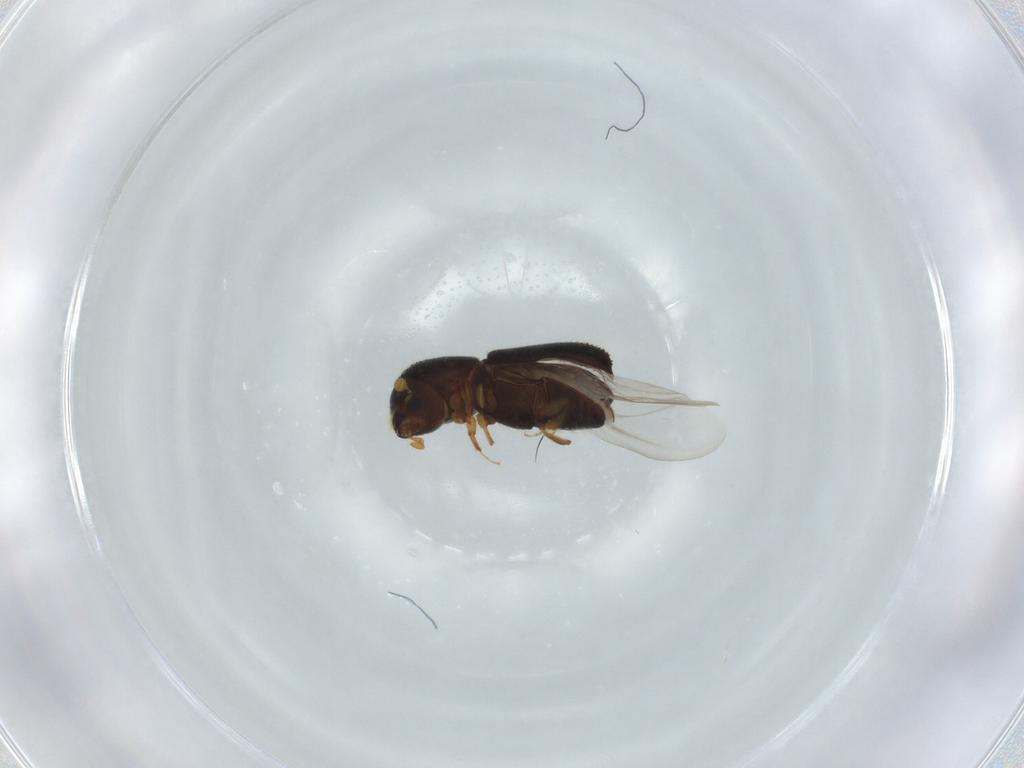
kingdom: Animalia
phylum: Arthropoda
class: Insecta
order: Coleoptera
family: Curculionidae
